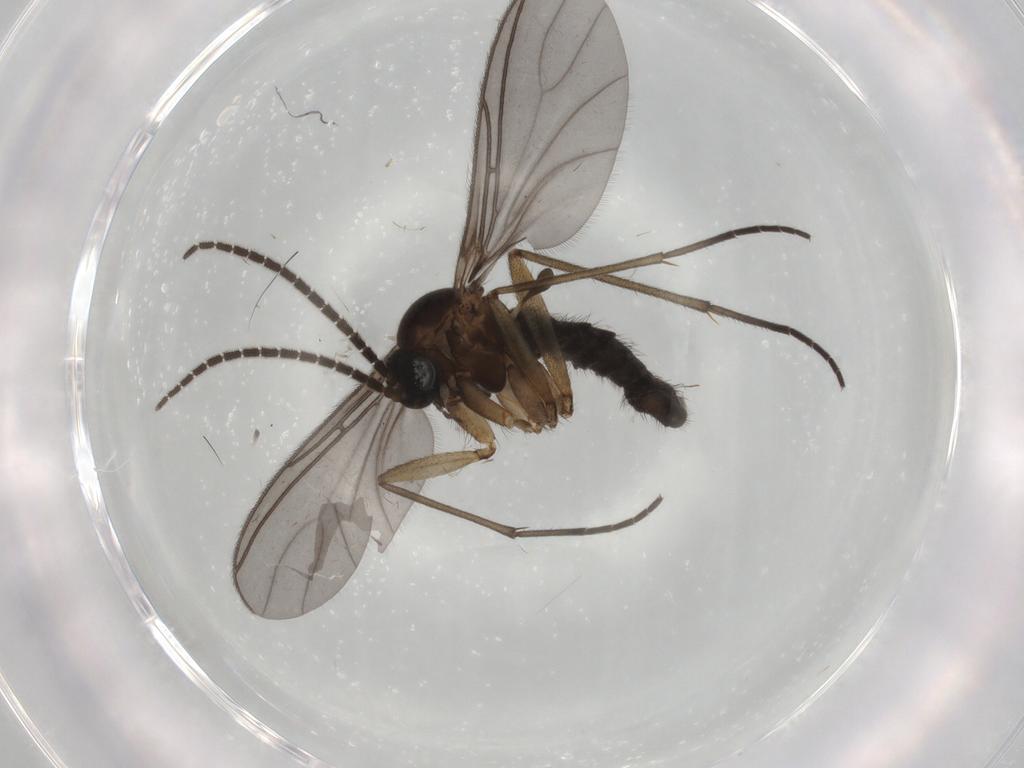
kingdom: Animalia
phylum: Arthropoda
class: Insecta
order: Diptera
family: Sciaridae
